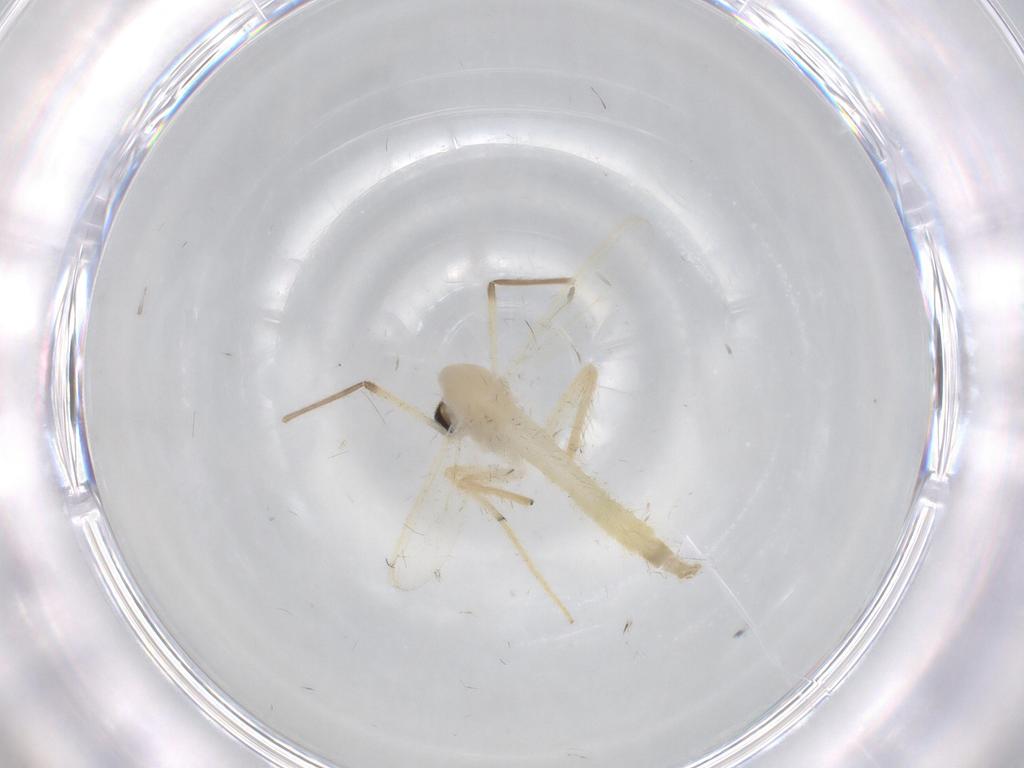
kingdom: Animalia
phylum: Arthropoda
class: Insecta
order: Diptera
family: Chironomidae
